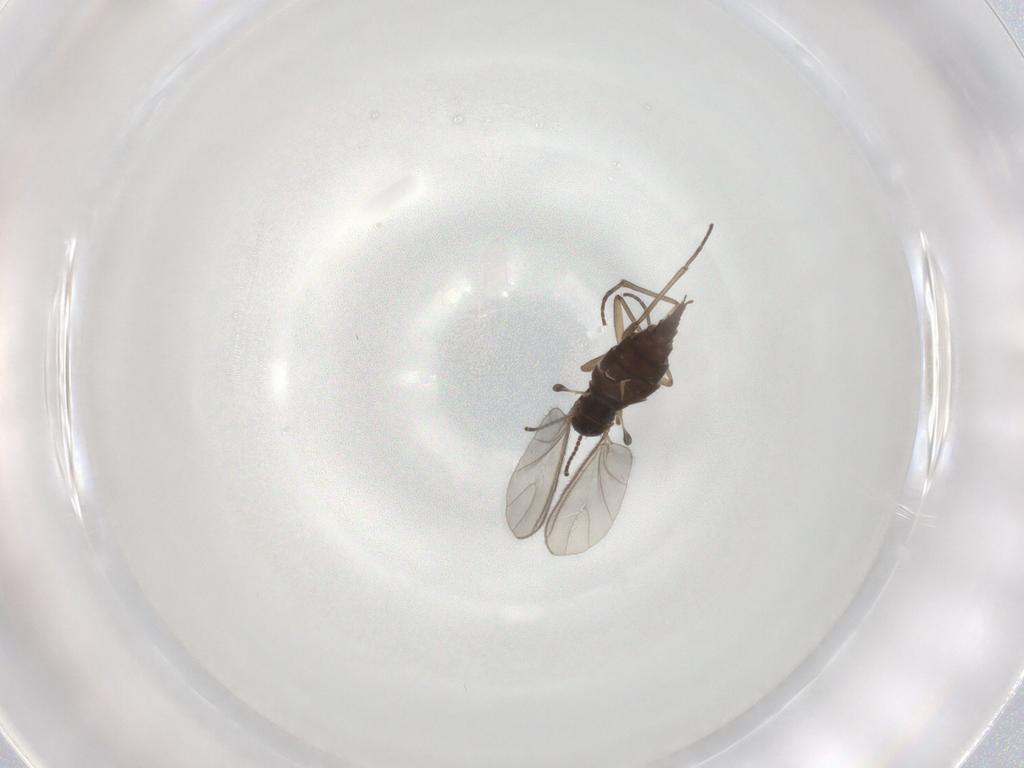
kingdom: Animalia
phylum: Arthropoda
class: Insecta
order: Diptera
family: Sciaridae
